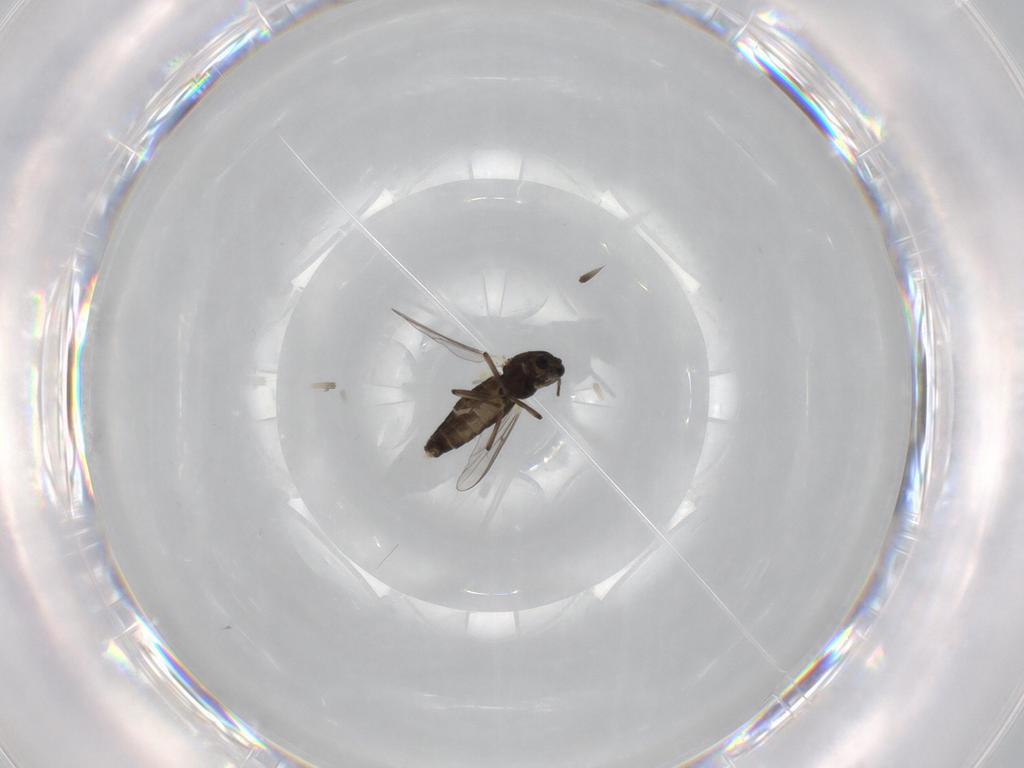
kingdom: Animalia
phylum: Arthropoda
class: Insecta
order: Diptera
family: Chironomidae
